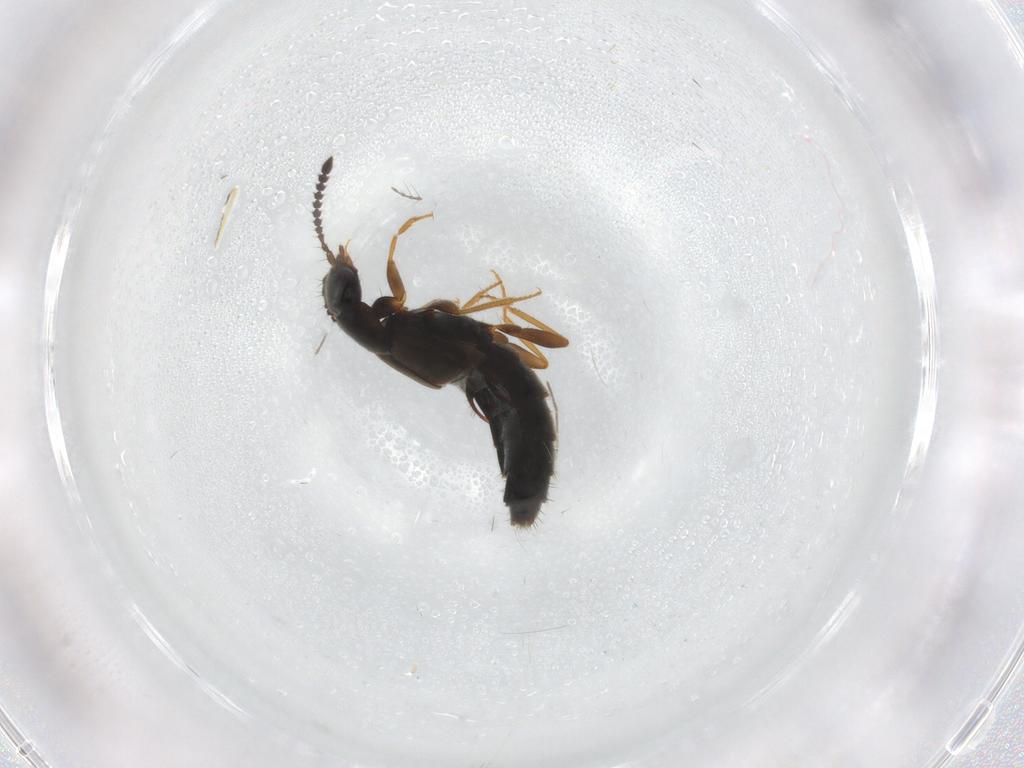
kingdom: Animalia
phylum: Arthropoda
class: Insecta
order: Coleoptera
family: Staphylinidae
